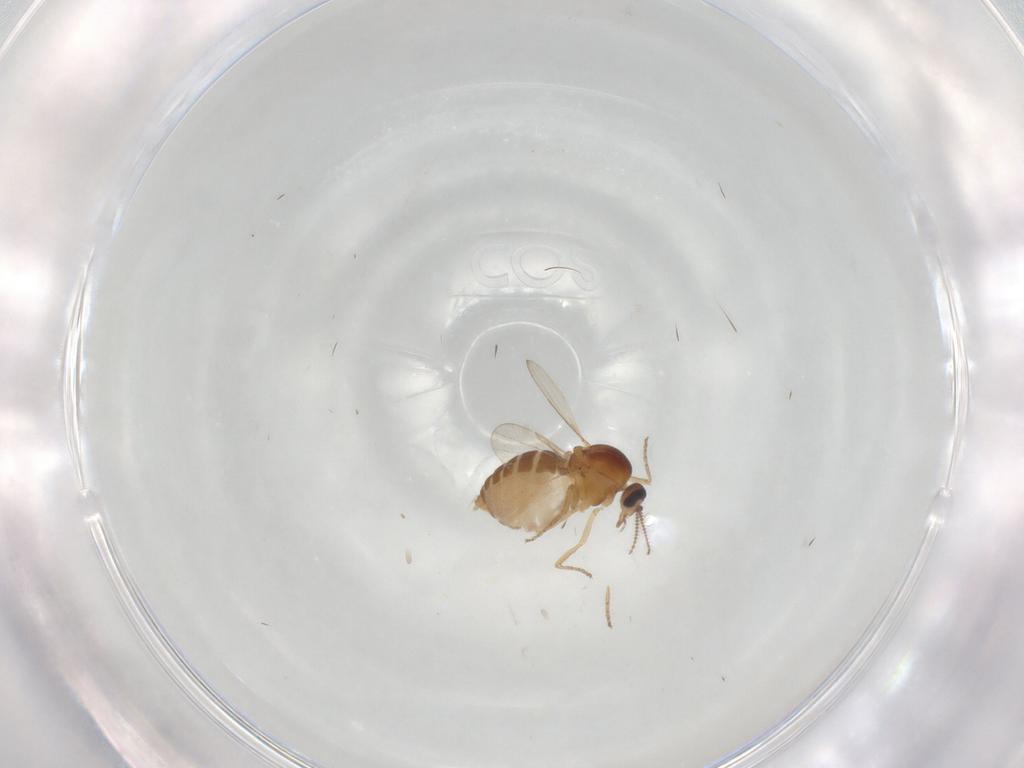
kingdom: Animalia
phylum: Arthropoda
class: Insecta
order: Diptera
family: Ceratopogonidae
